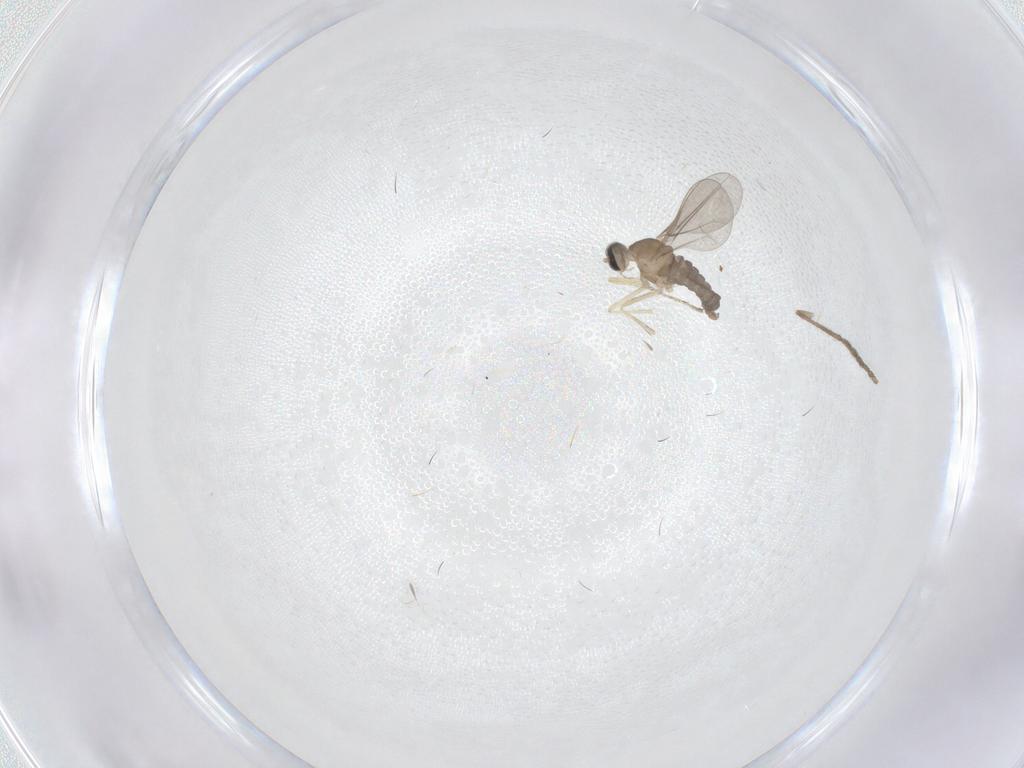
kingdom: Animalia
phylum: Arthropoda
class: Insecta
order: Diptera
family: Psychodidae
